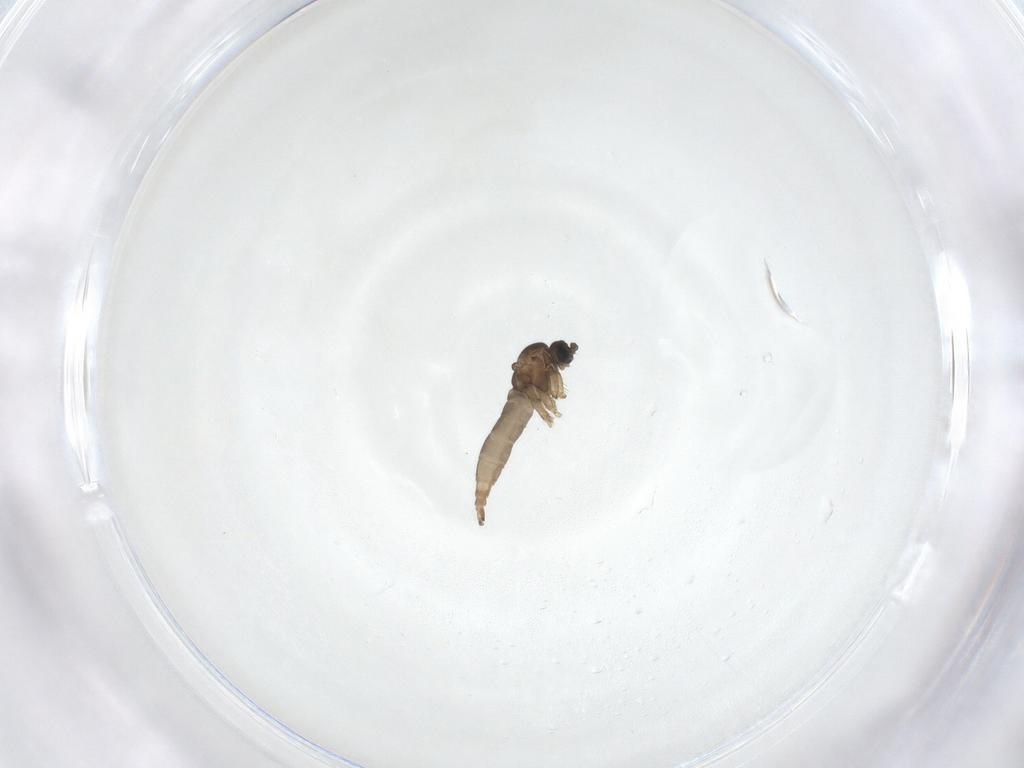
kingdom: Animalia
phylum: Arthropoda
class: Insecta
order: Diptera
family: Sciaridae
